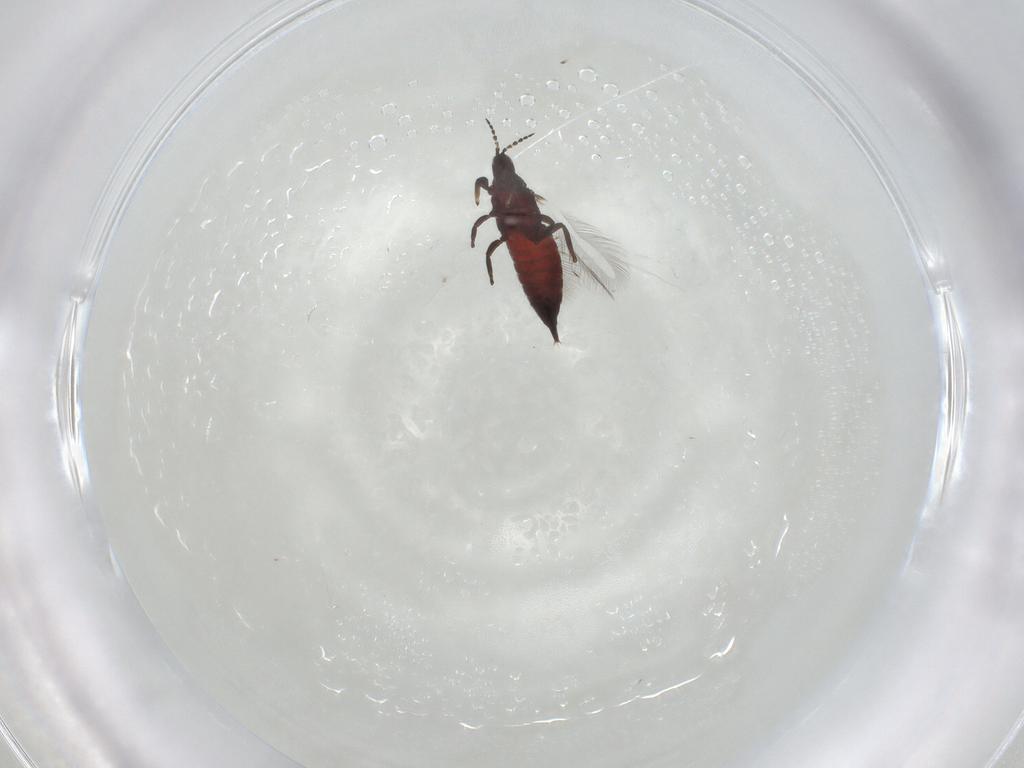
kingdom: Animalia
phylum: Arthropoda
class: Insecta
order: Thysanoptera
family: Phlaeothripidae
